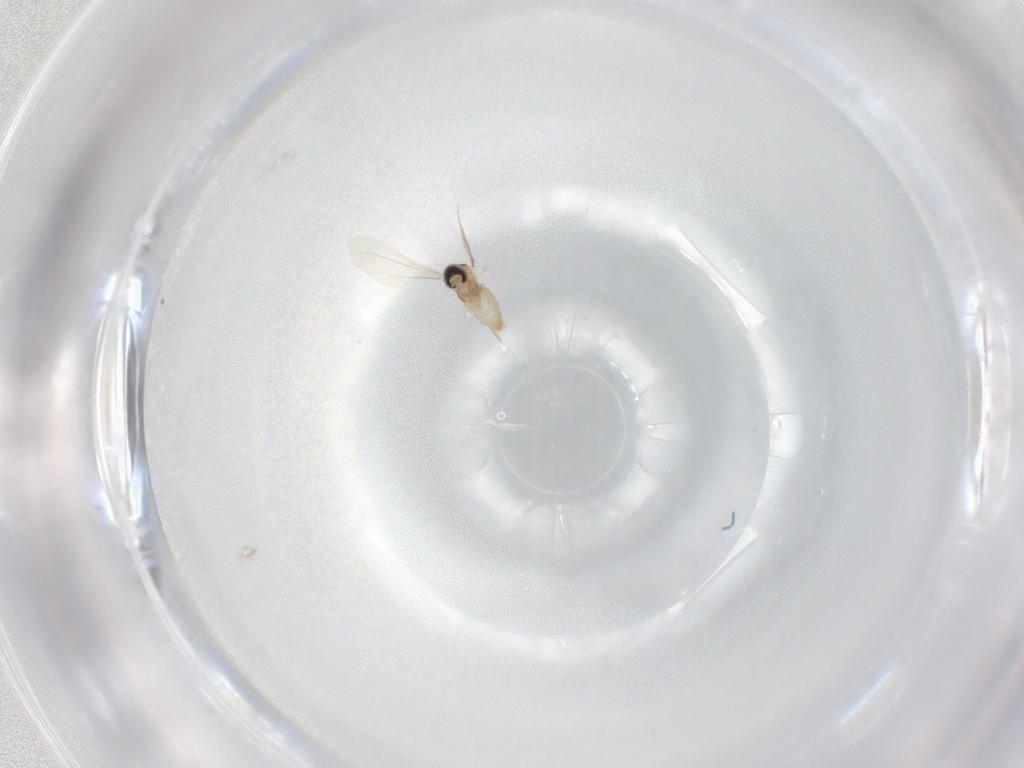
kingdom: Animalia
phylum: Arthropoda
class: Insecta
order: Diptera
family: Cecidomyiidae
